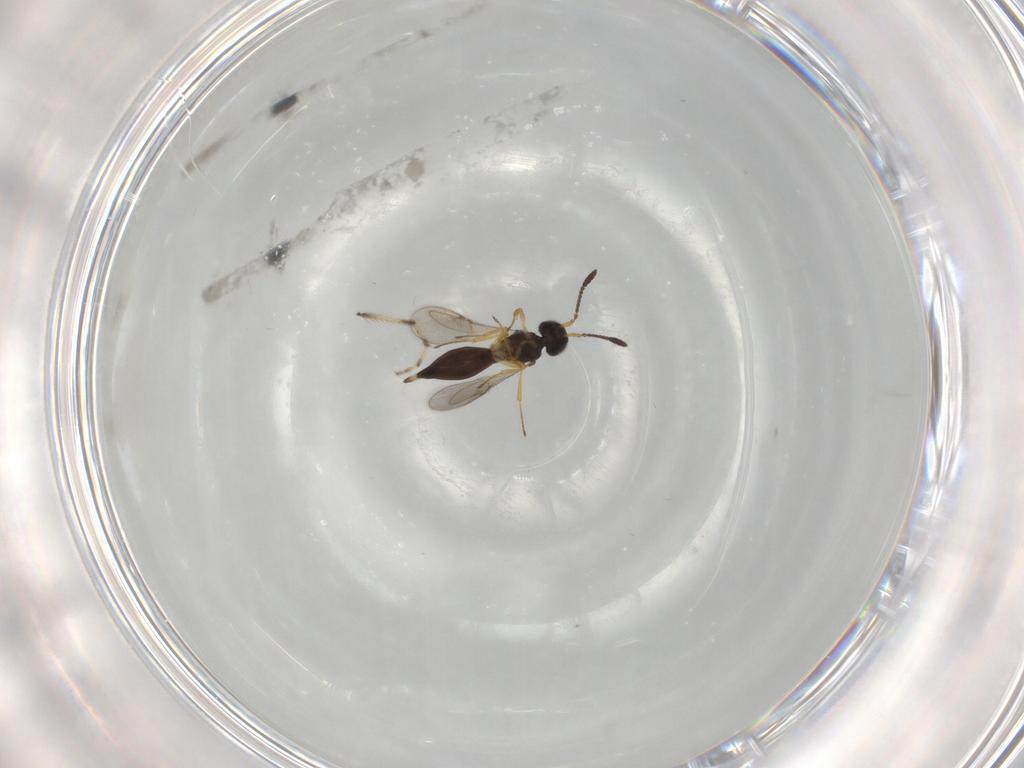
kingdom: Animalia
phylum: Arthropoda
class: Insecta
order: Hymenoptera
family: Scelionidae
